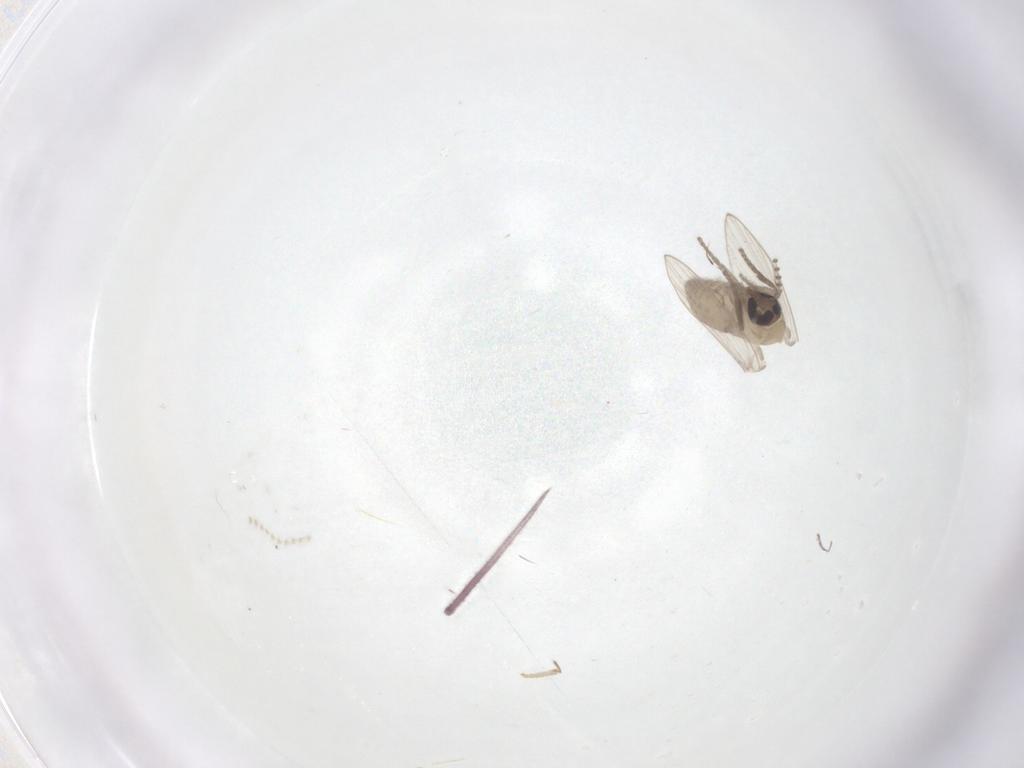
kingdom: Animalia
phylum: Arthropoda
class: Insecta
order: Diptera
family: Psychodidae
